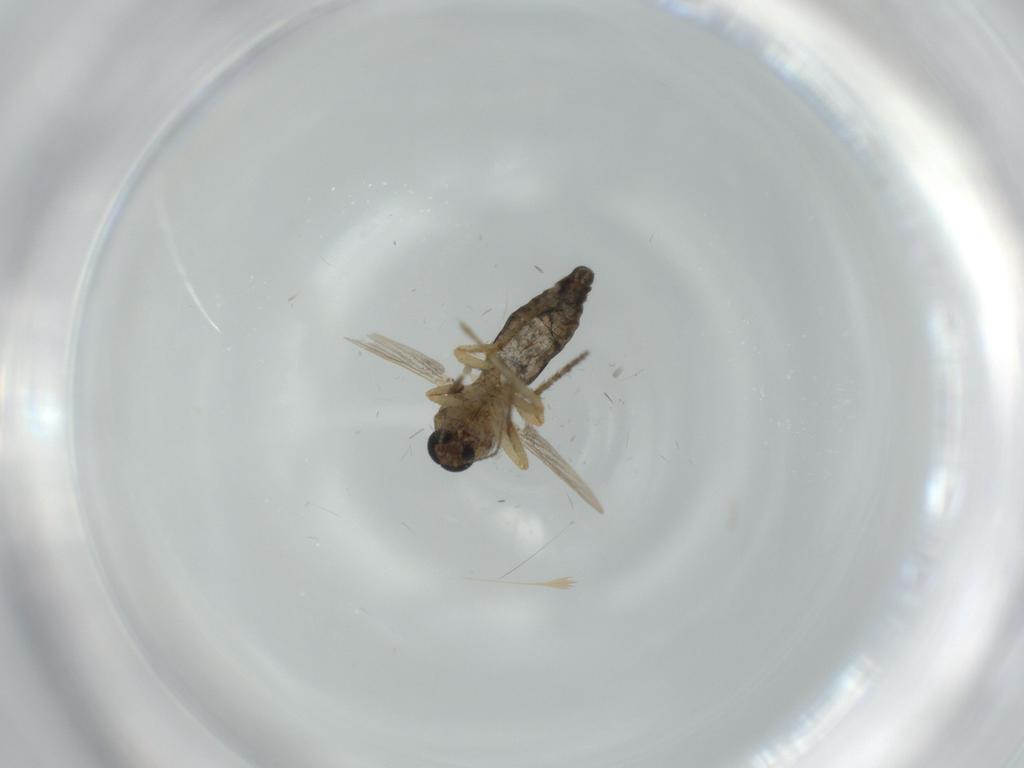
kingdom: Animalia
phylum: Arthropoda
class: Insecta
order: Diptera
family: Ceratopogonidae
